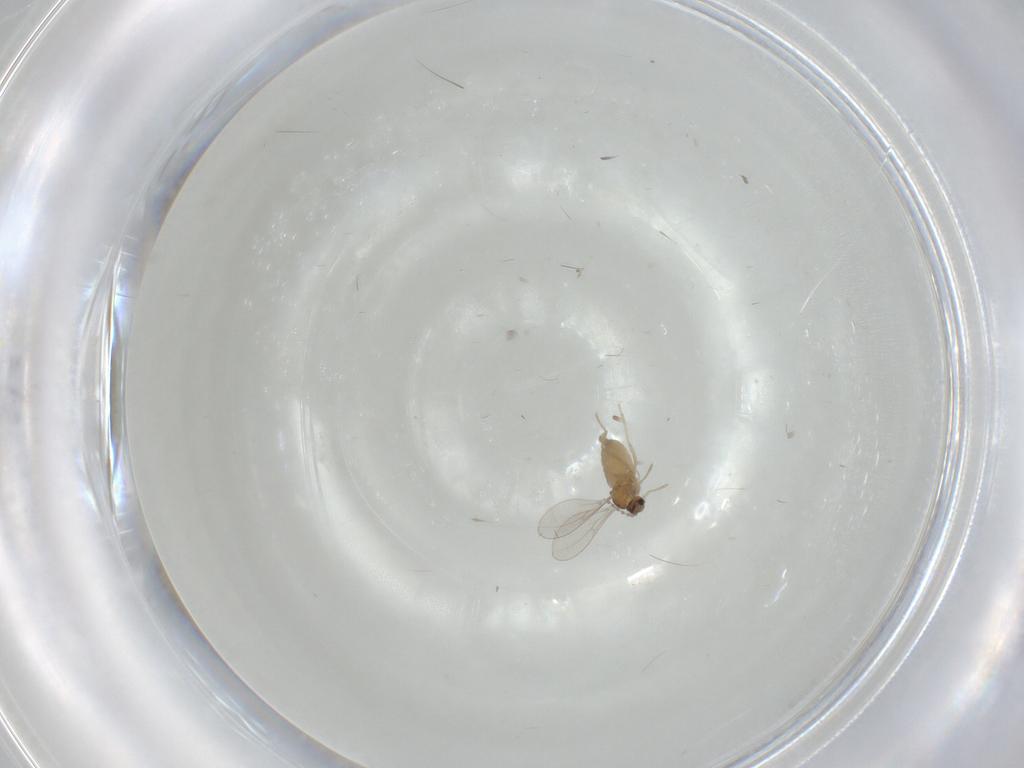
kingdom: Animalia
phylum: Arthropoda
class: Insecta
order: Diptera
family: Cecidomyiidae
